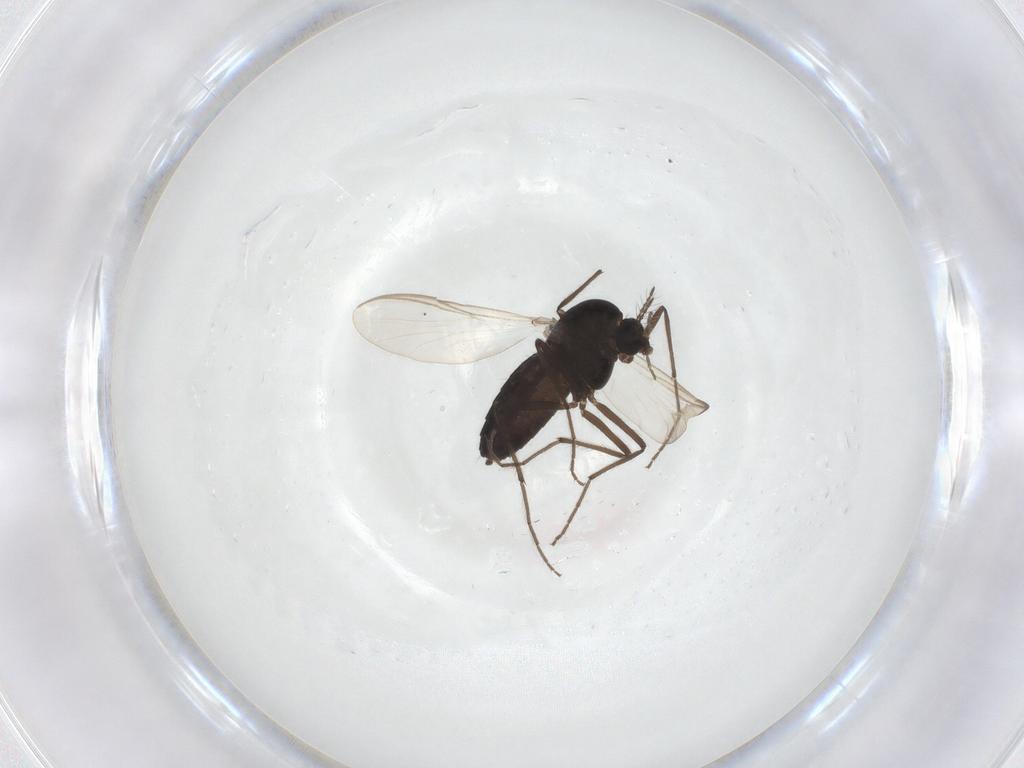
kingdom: Animalia
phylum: Arthropoda
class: Insecta
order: Diptera
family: Chironomidae
